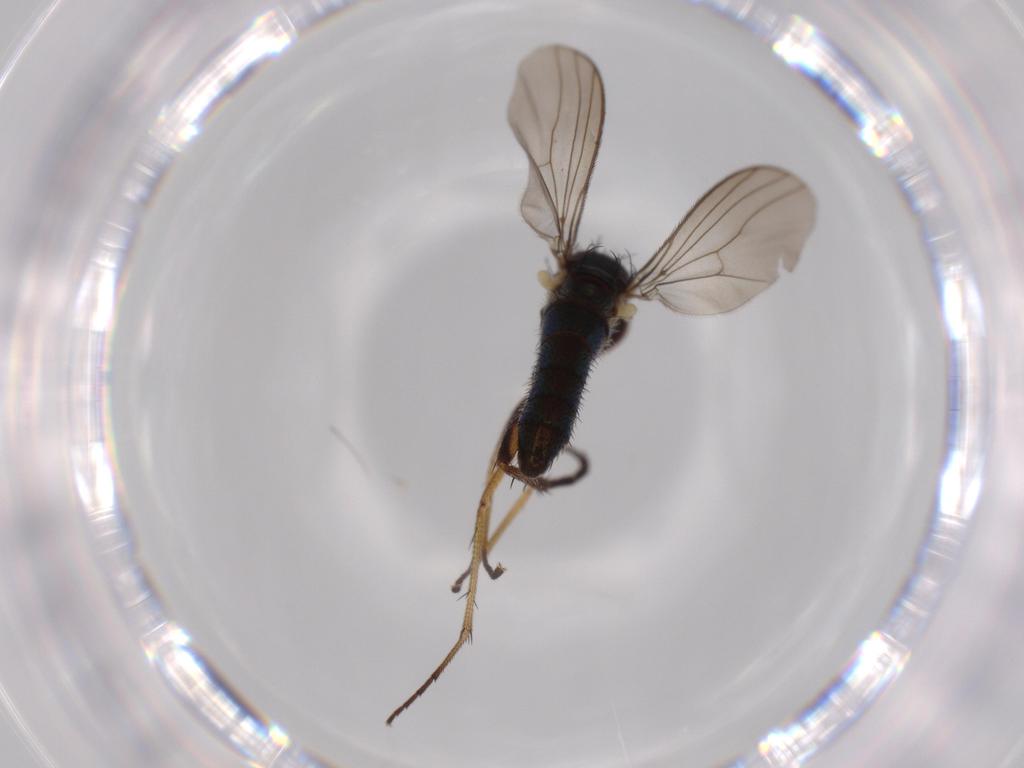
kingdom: Animalia
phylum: Arthropoda
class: Insecta
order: Diptera
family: Dolichopodidae
